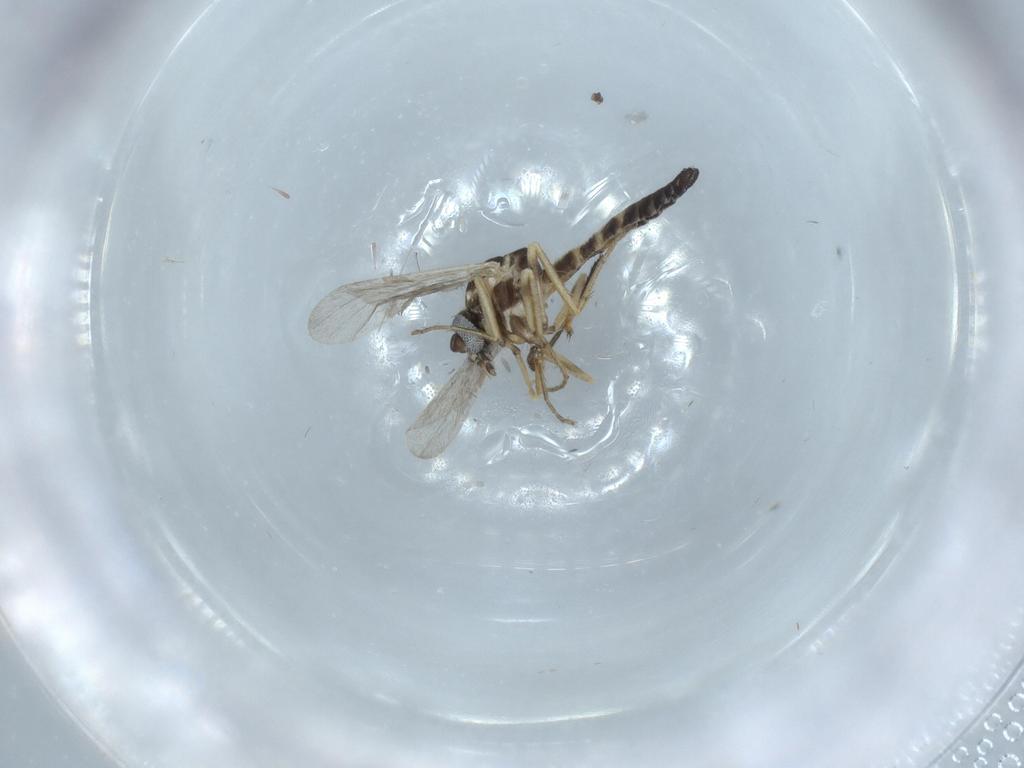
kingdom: Animalia
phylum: Arthropoda
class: Insecta
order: Diptera
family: Ceratopogonidae
